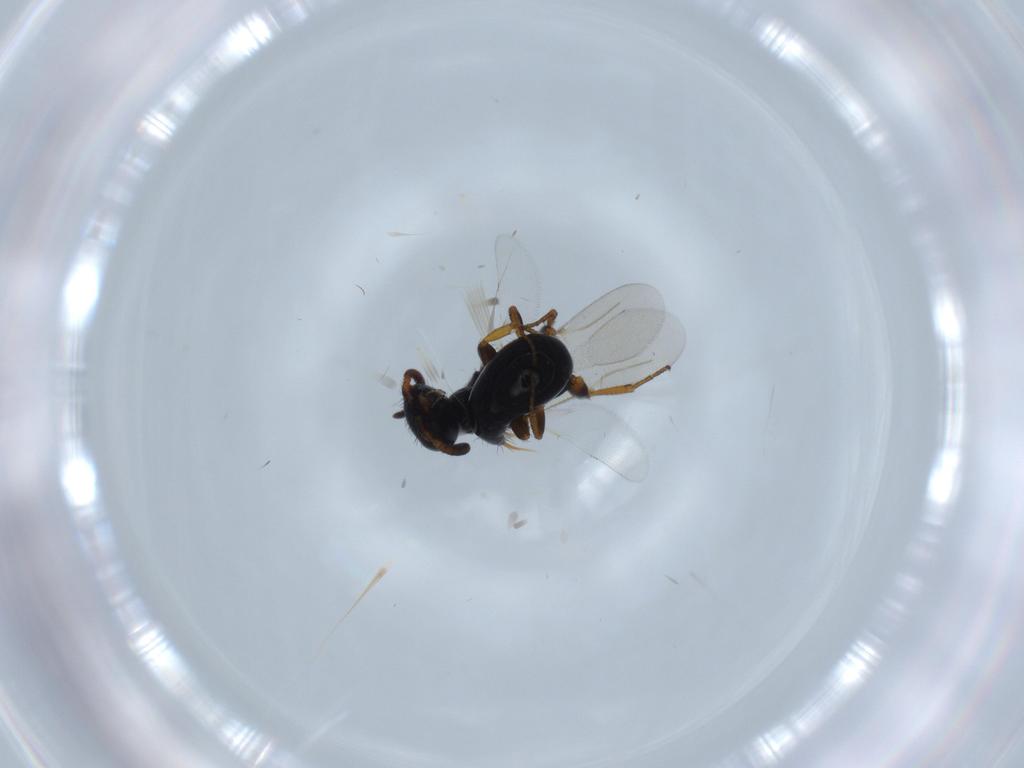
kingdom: Animalia
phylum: Arthropoda
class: Insecta
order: Hymenoptera
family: Bethylidae
